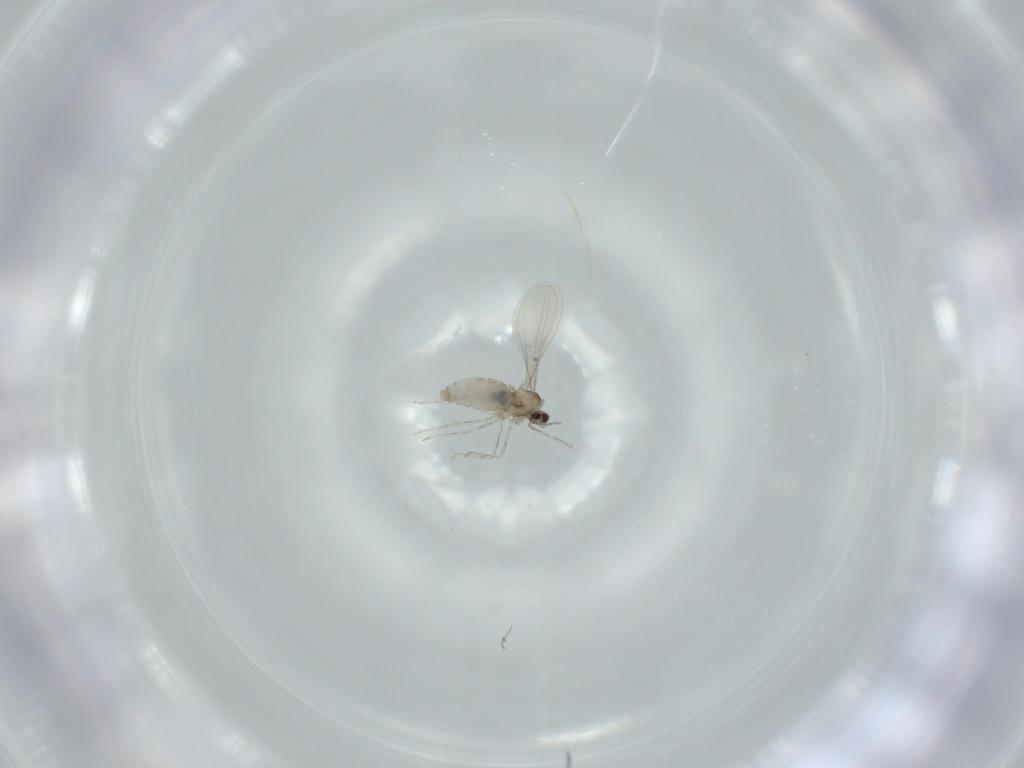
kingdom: Animalia
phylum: Arthropoda
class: Insecta
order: Diptera
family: Cecidomyiidae
